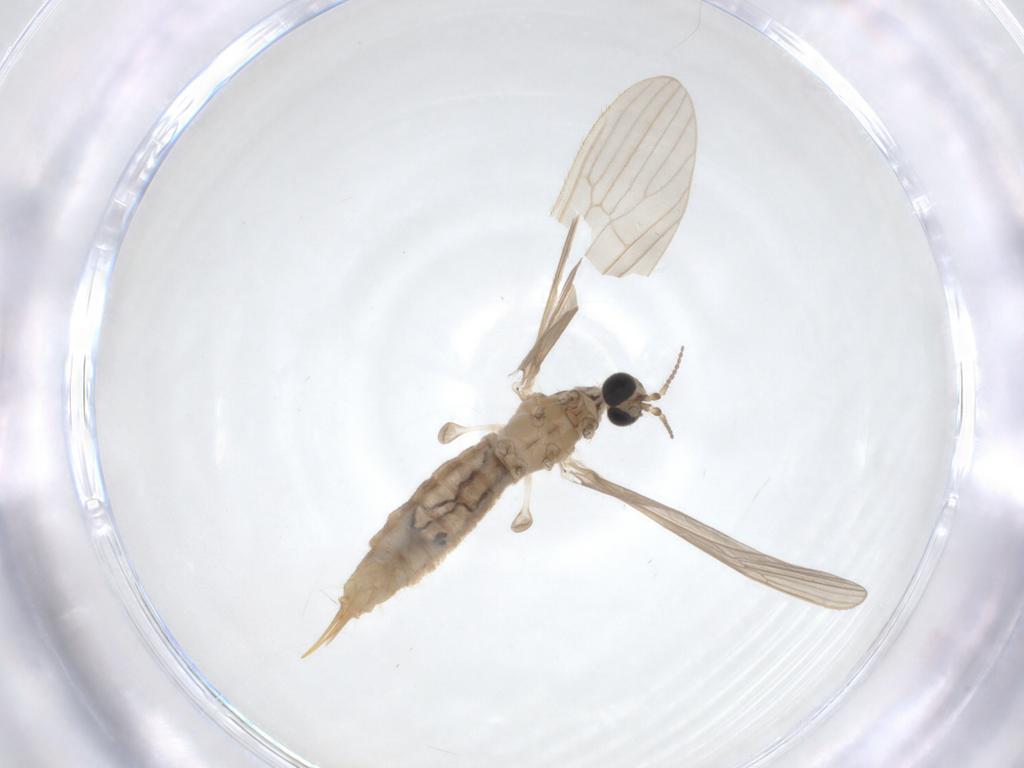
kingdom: Animalia
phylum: Arthropoda
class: Insecta
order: Diptera
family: Limoniidae
